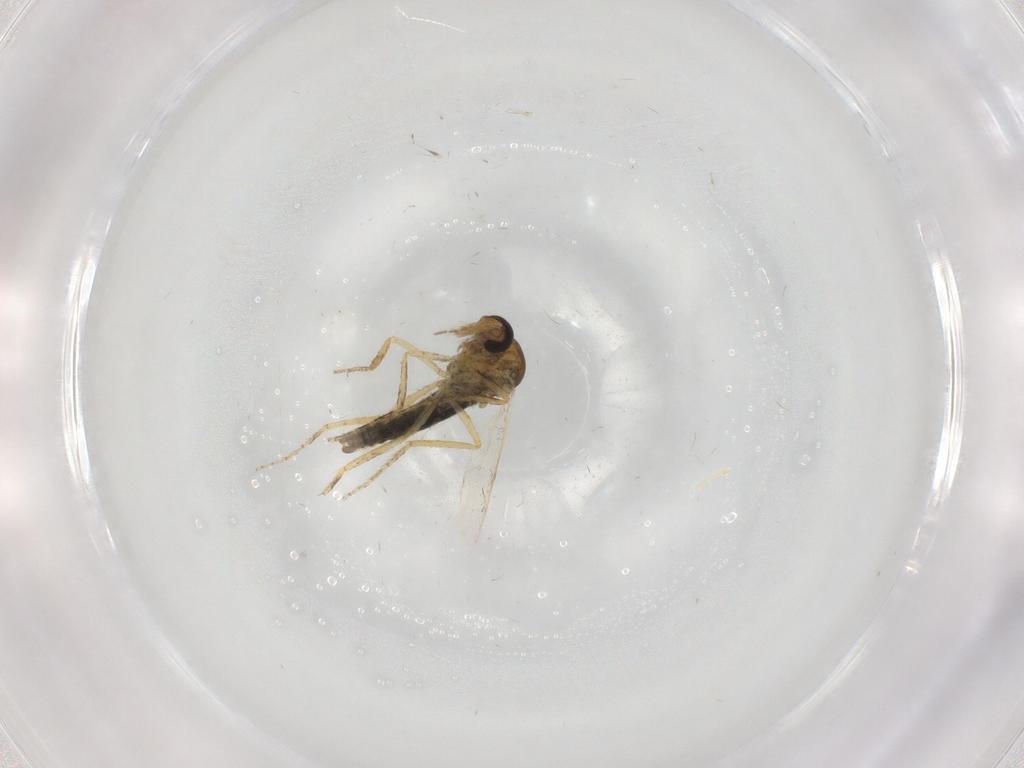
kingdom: Animalia
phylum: Arthropoda
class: Insecta
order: Diptera
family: Ceratopogonidae
